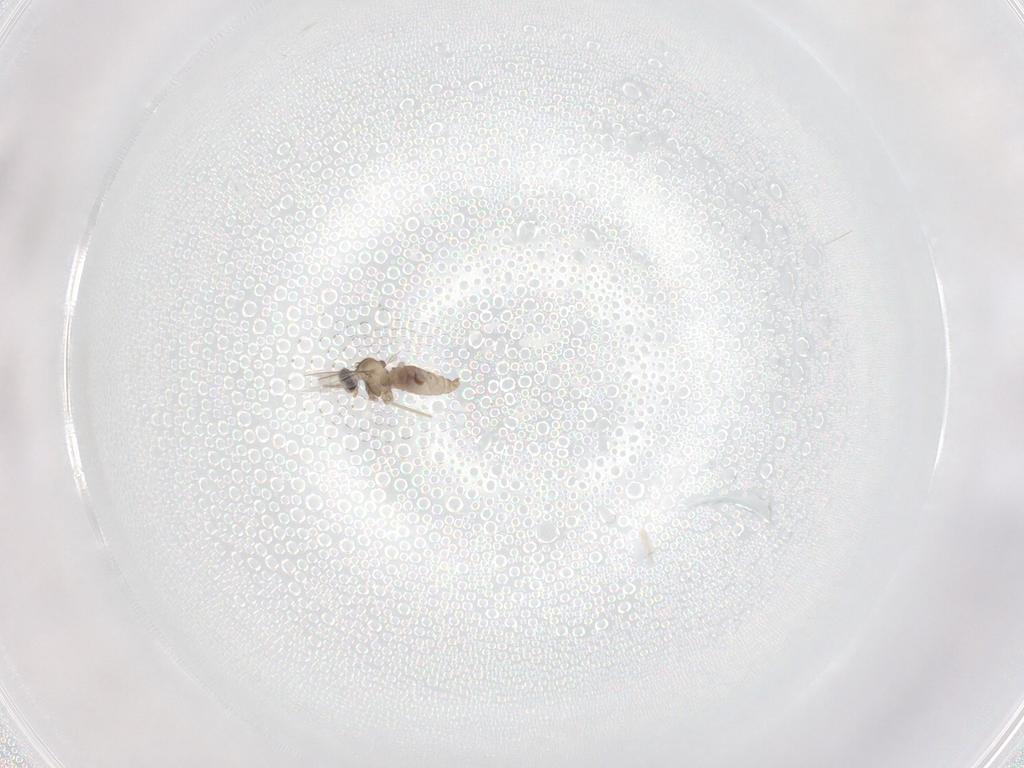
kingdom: Animalia
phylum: Arthropoda
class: Insecta
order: Diptera
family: Cecidomyiidae
